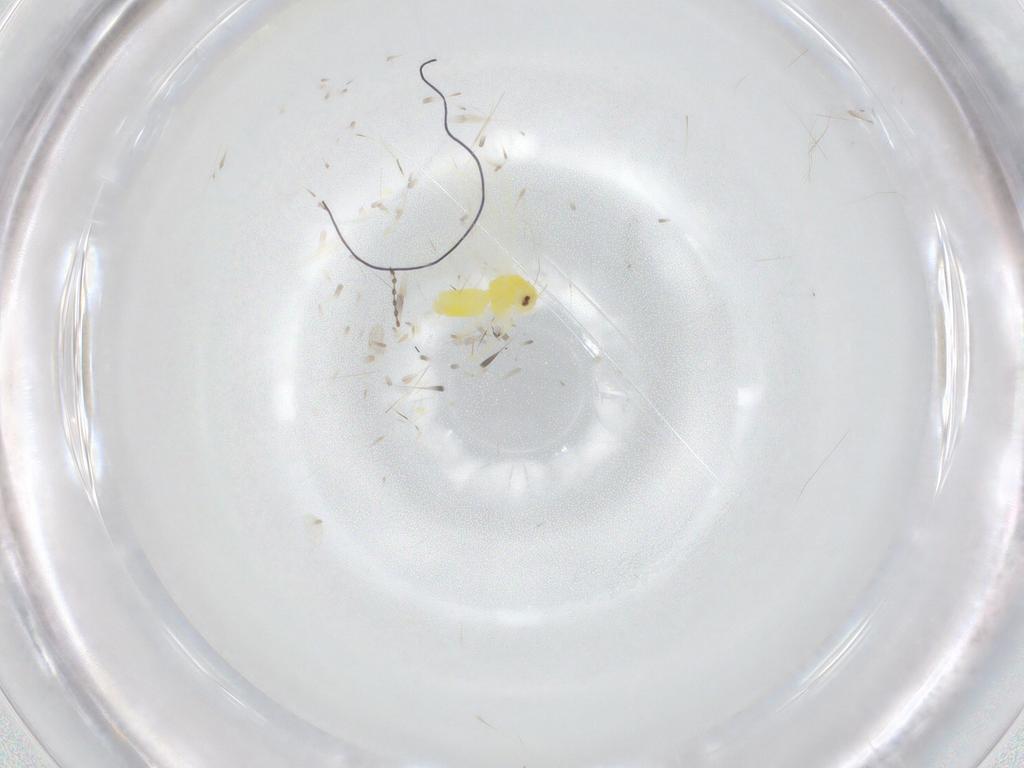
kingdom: Animalia
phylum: Arthropoda
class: Insecta
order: Hemiptera
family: Aleyrodidae
